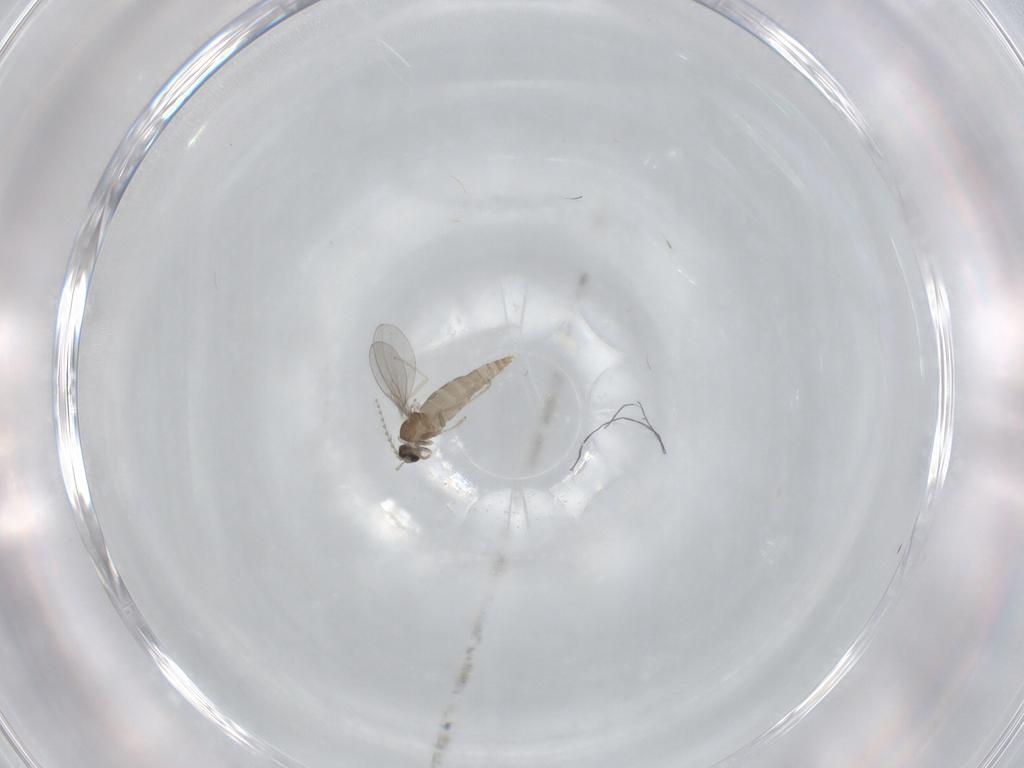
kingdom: Animalia
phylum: Arthropoda
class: Insecta
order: Diptera
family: Cecidomyiidae
